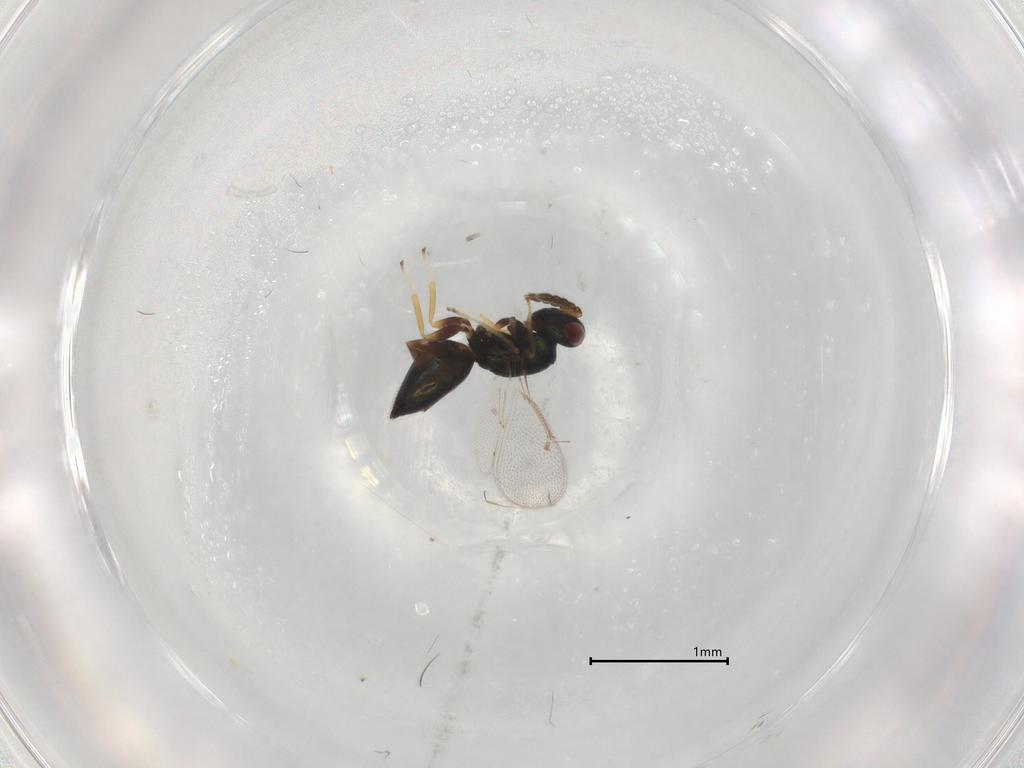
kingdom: Animalia
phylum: Arthropoda
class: Insecta
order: Hymenoptera
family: Eulophidae
